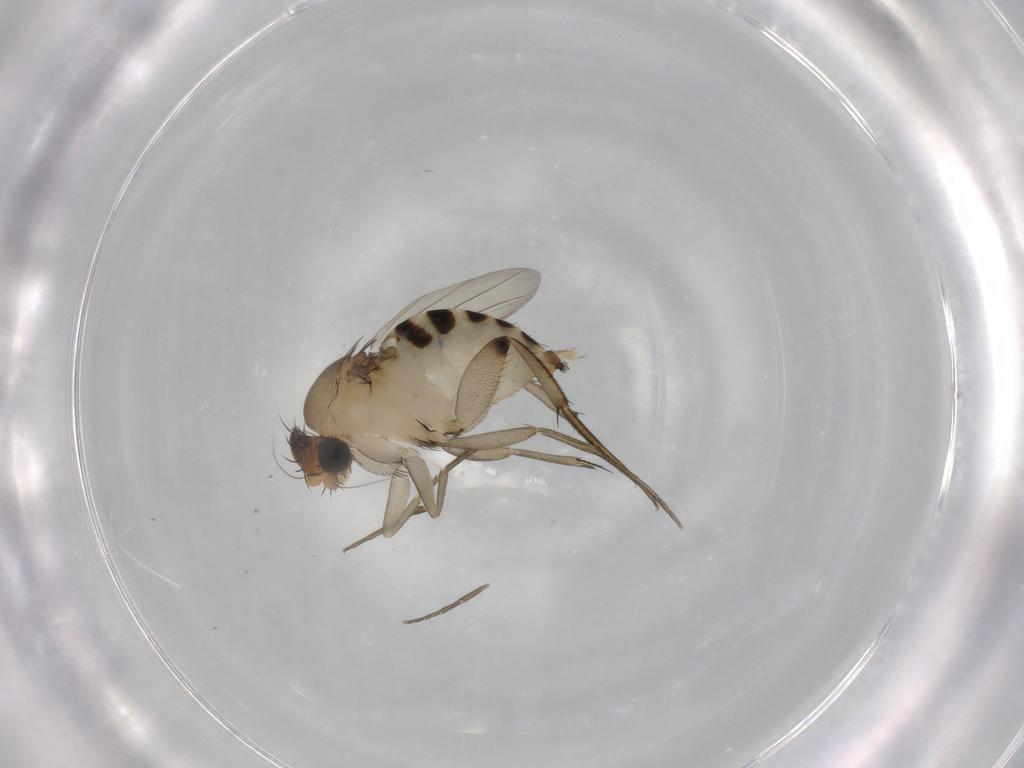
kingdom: Animalia
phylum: Arthropoda
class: Insecta
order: Diptera
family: Phoridae
